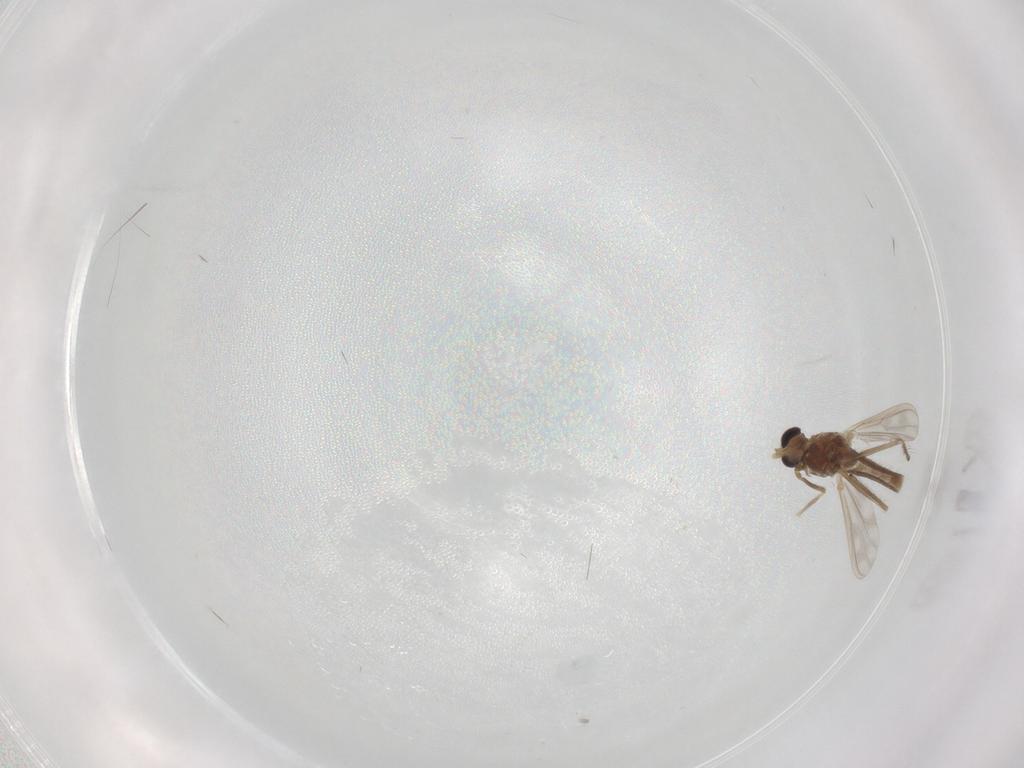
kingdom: Animalia
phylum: Arthropoda
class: Insecta
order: Diptera
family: Chironomidae
